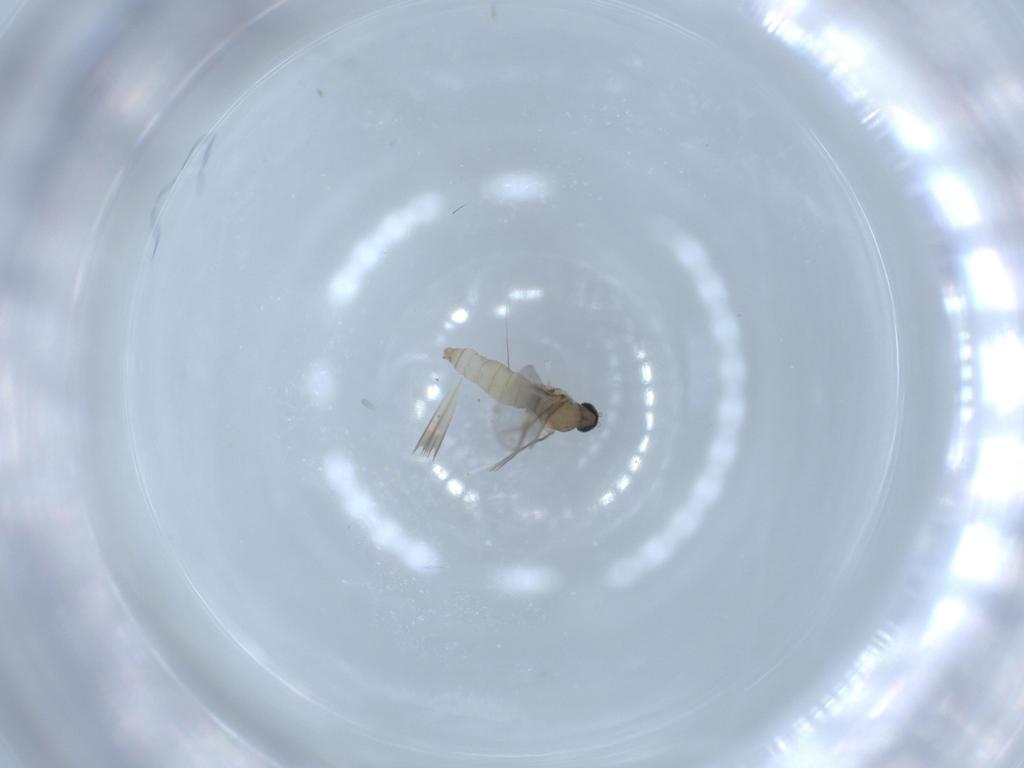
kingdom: Animalia
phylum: Arthropoda
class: Insecta
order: Diptera
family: Cecidomyiidae
